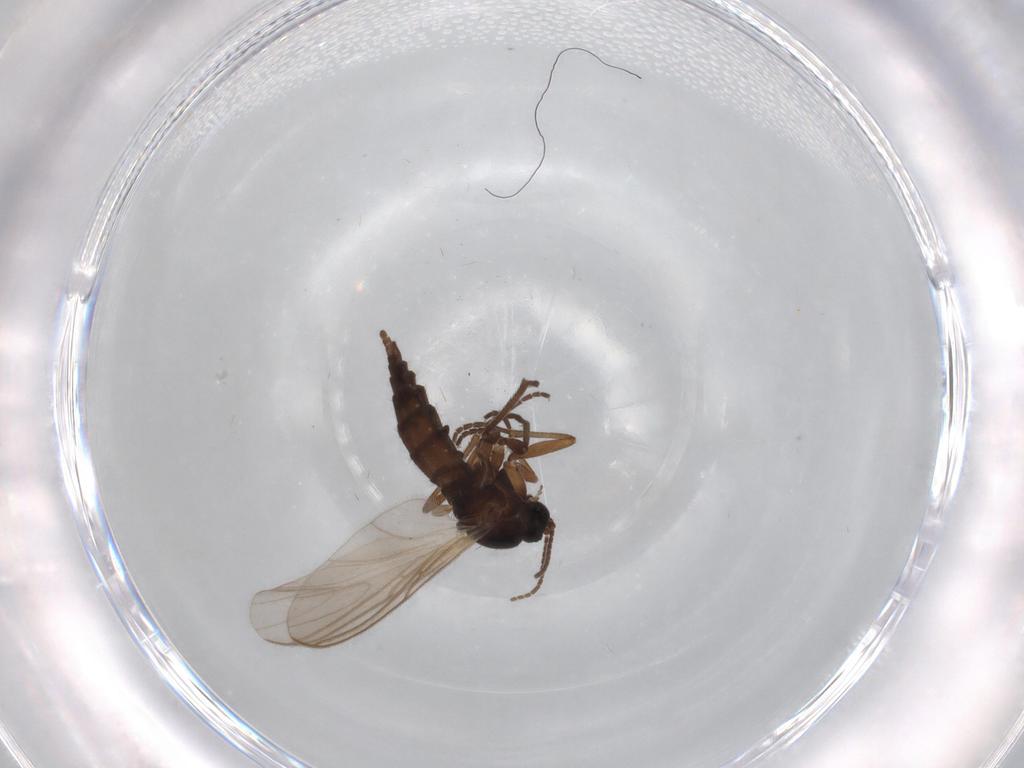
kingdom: Animalia
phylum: Arthropoda
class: Insecta
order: Diptera
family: Sciaridae
